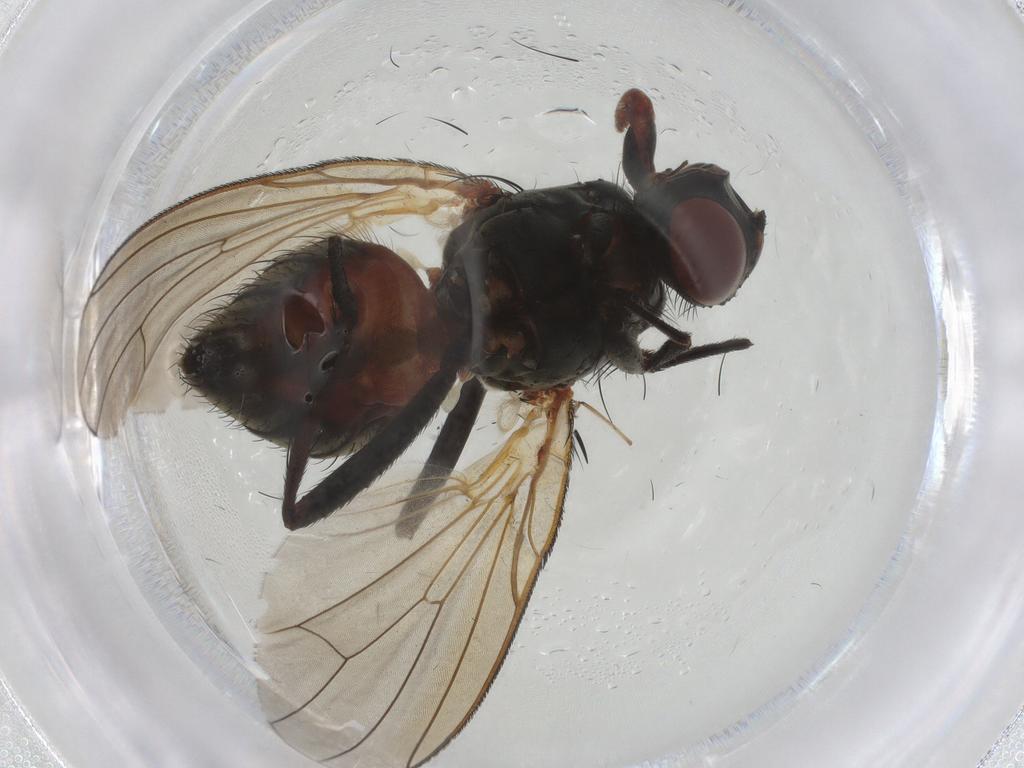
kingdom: Animalia
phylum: Arthropoda
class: Insecta
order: Diptera
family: Anthomyiidae
